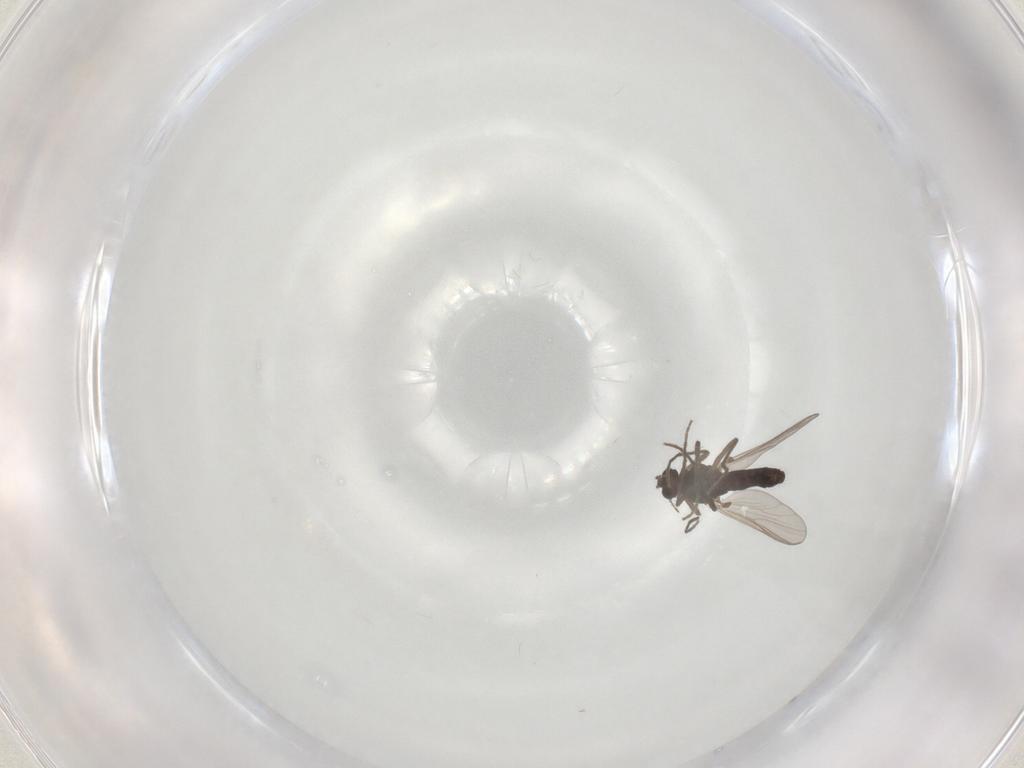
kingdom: Animalia
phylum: Arthropoda
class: Insecta
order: Diptera
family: Chironomidae
